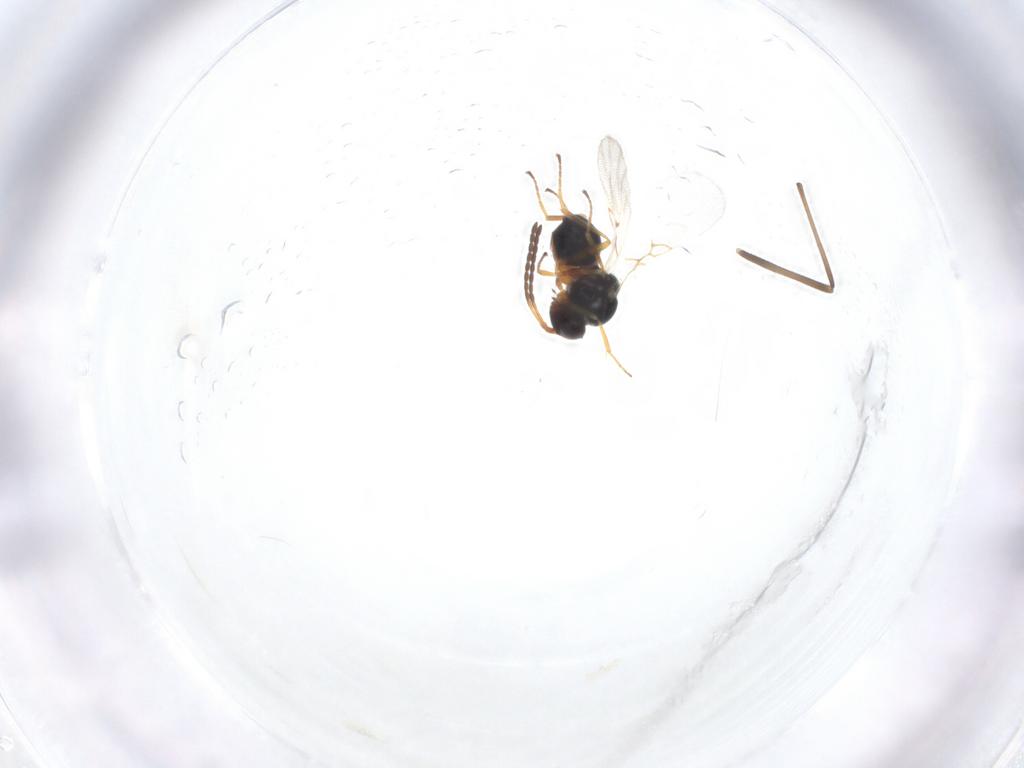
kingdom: Animalia
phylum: Arthropoda
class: Insecta
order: Hymenoptera
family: Figitidae
